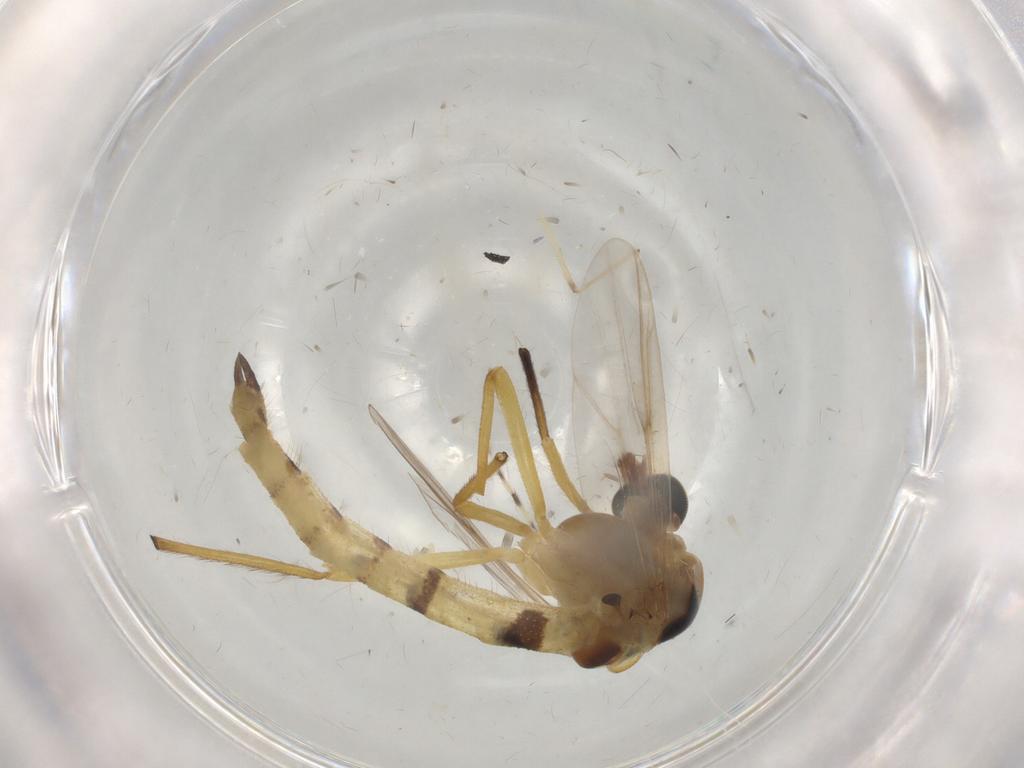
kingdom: Animalia
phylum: Arthropoda
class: Insecta
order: Diptera
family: Cecidomyiidae
